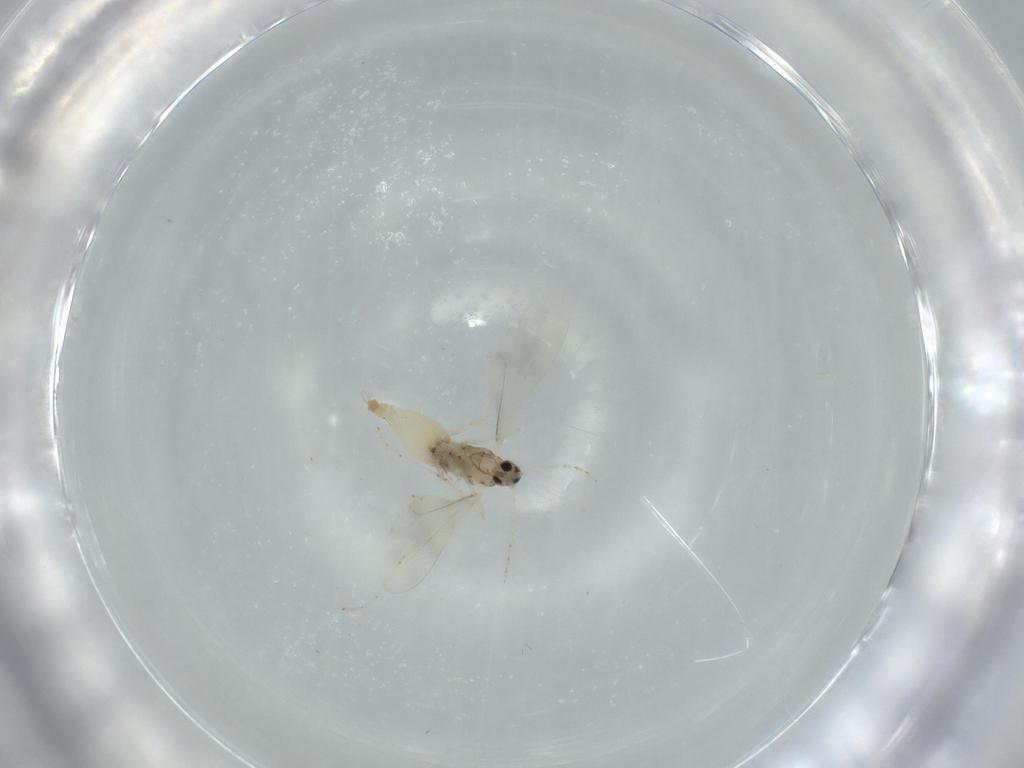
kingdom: Animalia
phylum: Arthropoda
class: Insecta
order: Diptera
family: Cecidomyiidae
